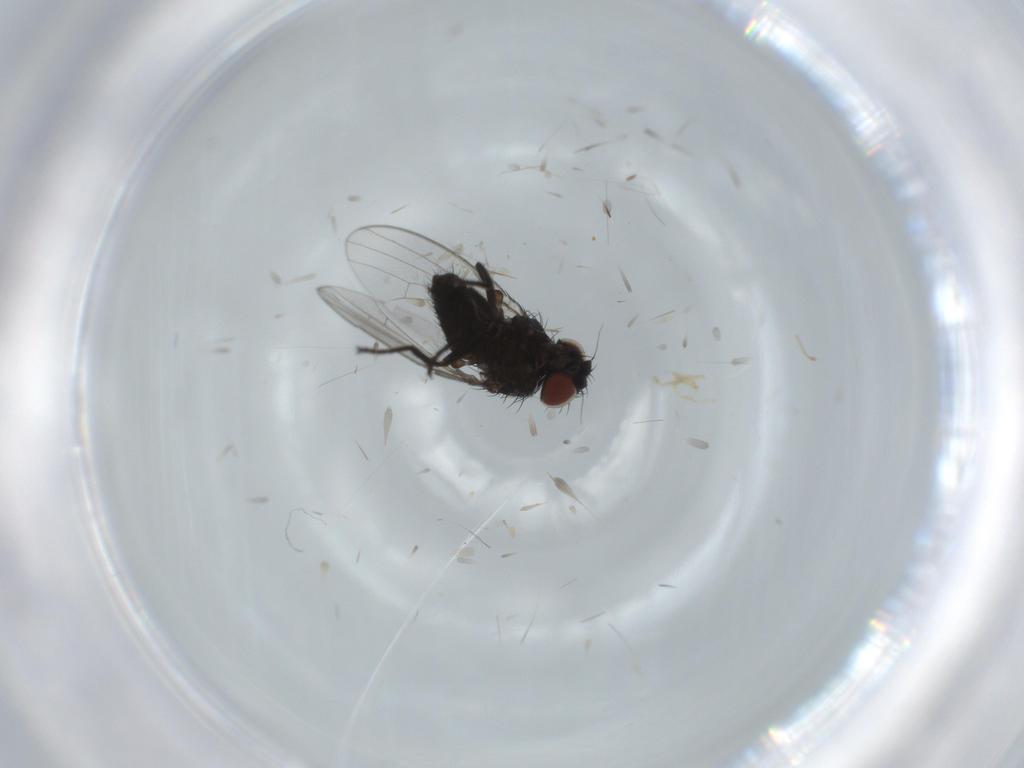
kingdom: Animalia
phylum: Arthropoda
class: Insecta
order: Diptera
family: Milichiidae
